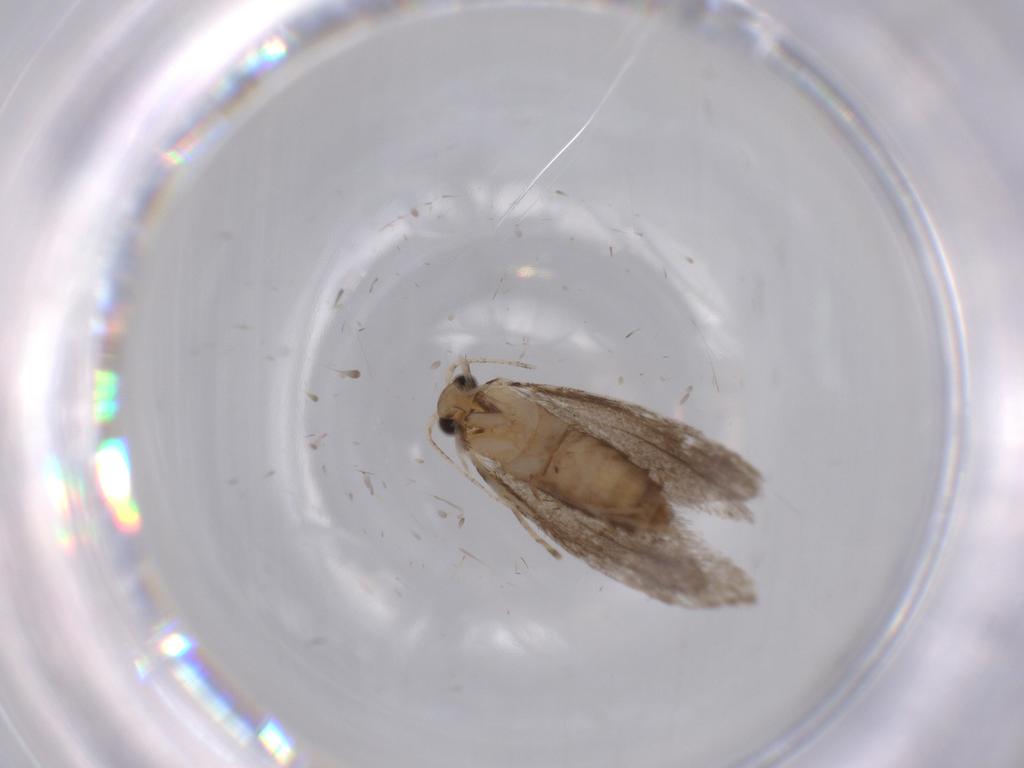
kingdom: Animalia
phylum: Arthropoda
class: Insecta
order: Lepidoptera
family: Tineidae
